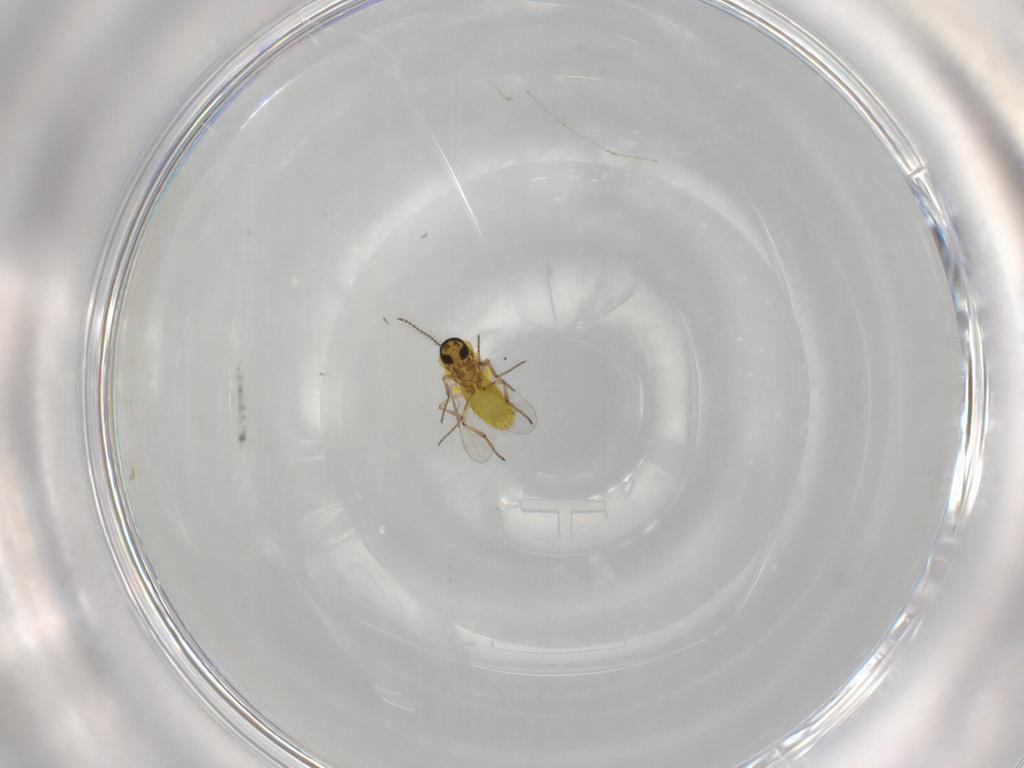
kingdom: Animalia
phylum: Arthropoda
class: Insecta
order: Diptera
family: Cecidomyiidae
